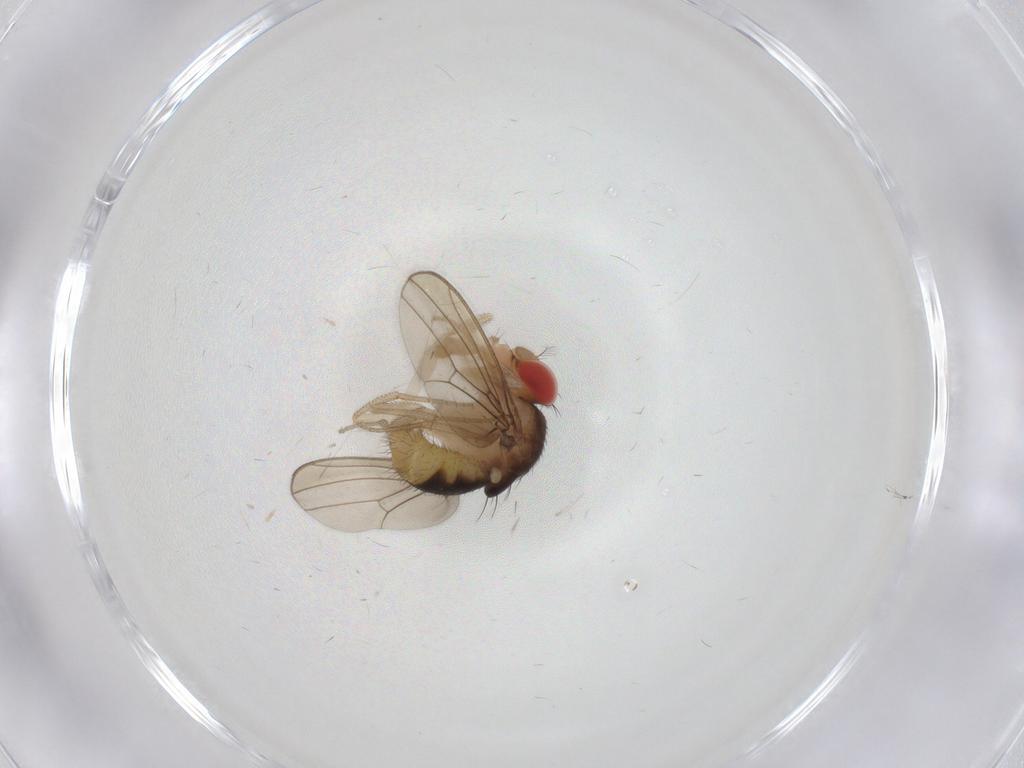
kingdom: Animalia
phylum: Arthropoda
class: Insecta
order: Diptera
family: Drosophilidae
